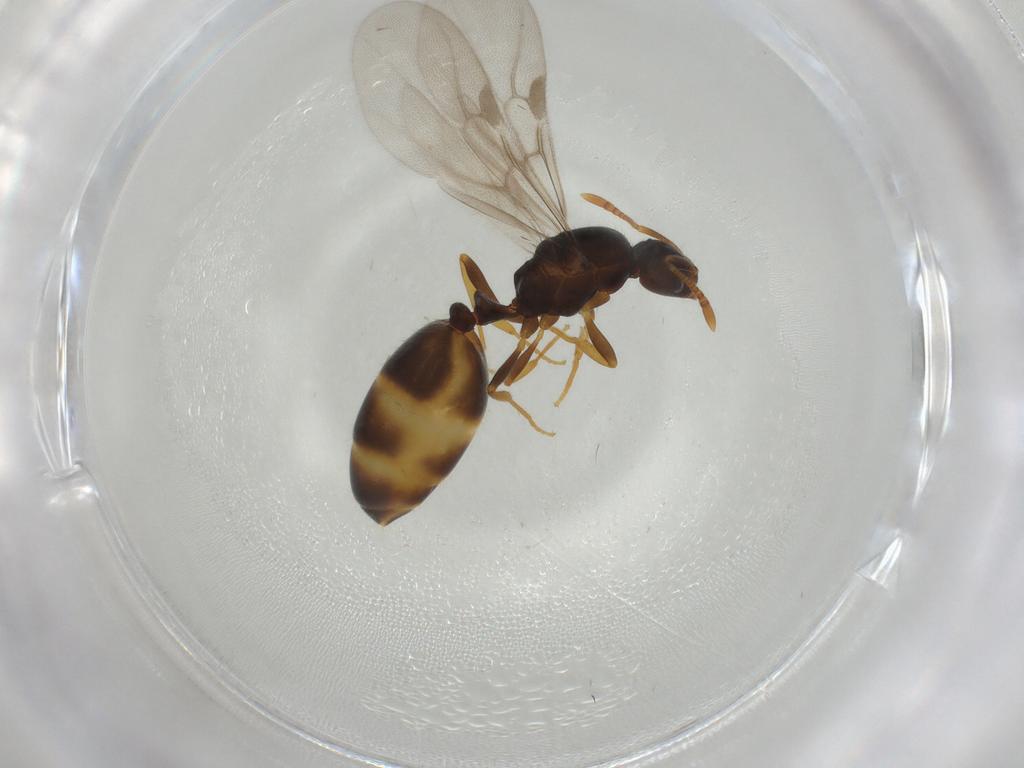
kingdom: Animalia
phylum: Arthropoda
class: Insecta
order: Hymenoptera
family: Formicidae
